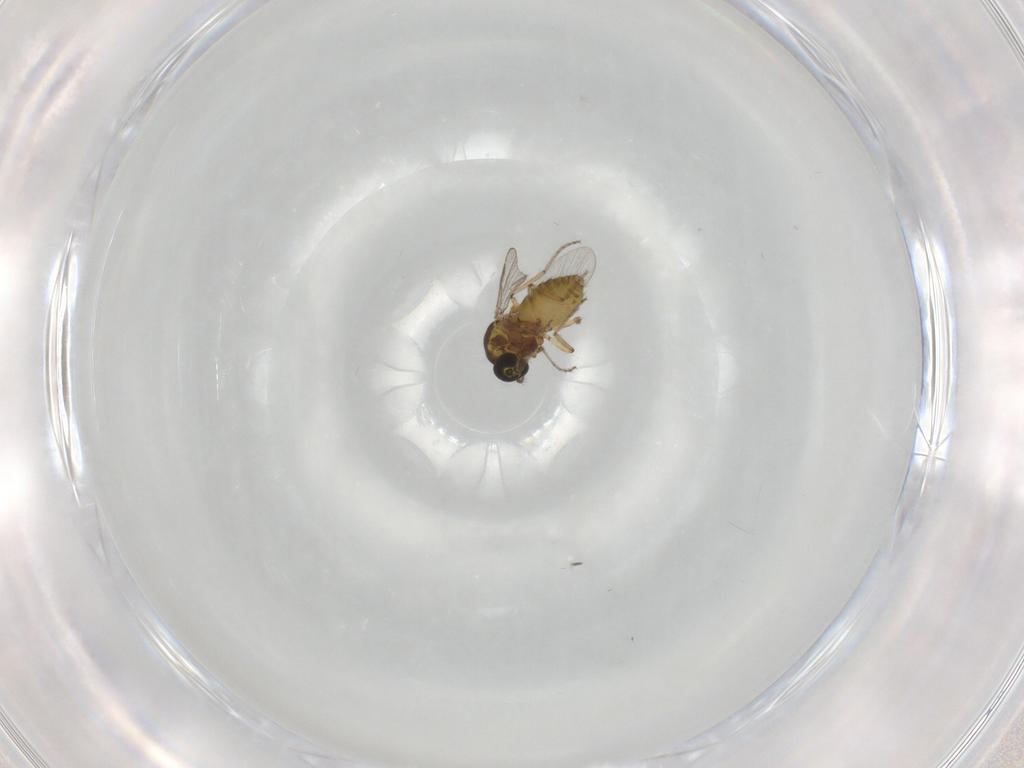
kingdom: Animalia
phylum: Arthropoda
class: Insecta
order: Diptera
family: Ceratopogonidae
